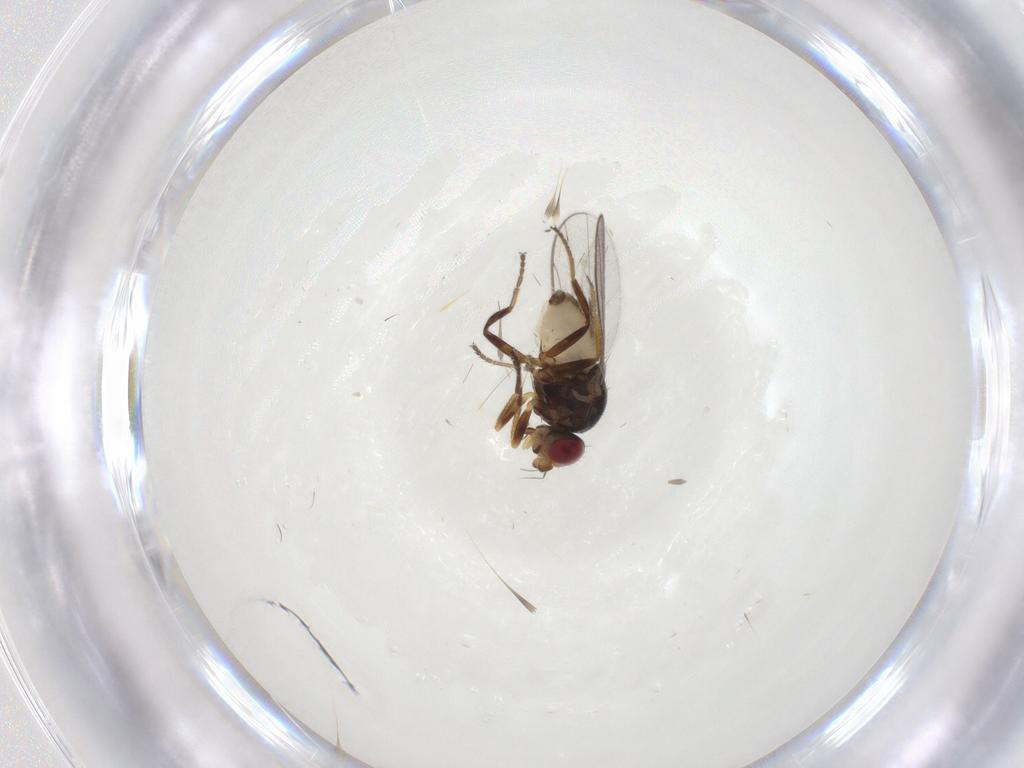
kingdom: Animalia
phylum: Arthropoda
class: Insecta
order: Diptera
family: Chloropidae
